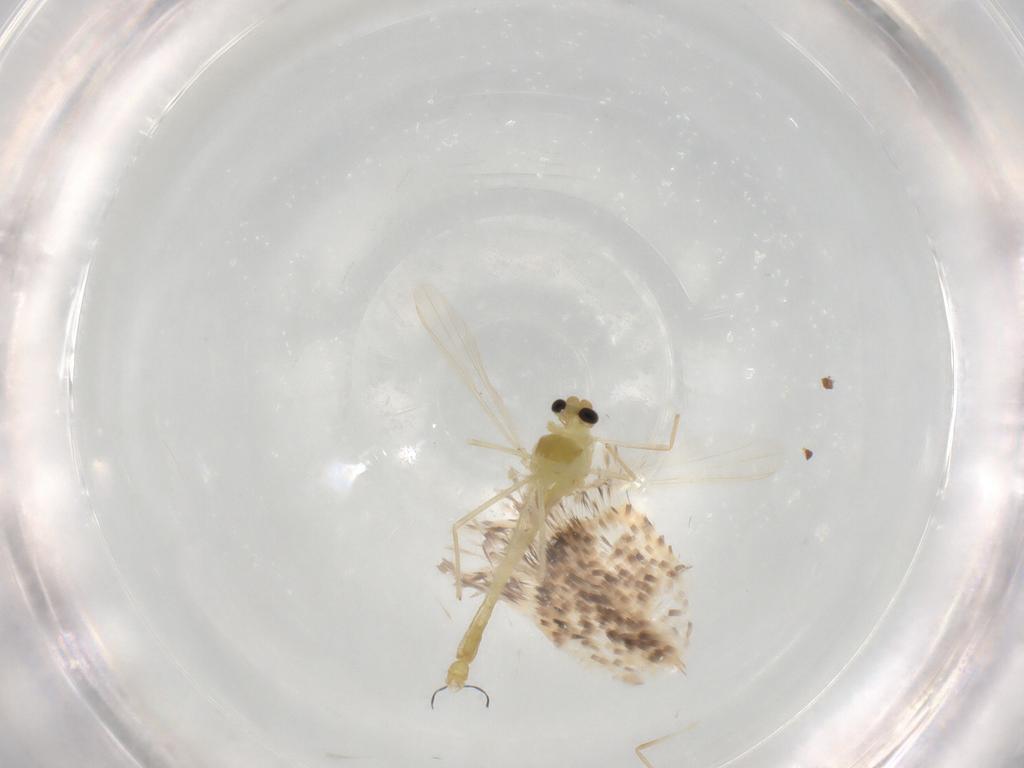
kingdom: Animalia
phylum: Arthropoda
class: Insecta
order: Diptera
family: Chironomidae
